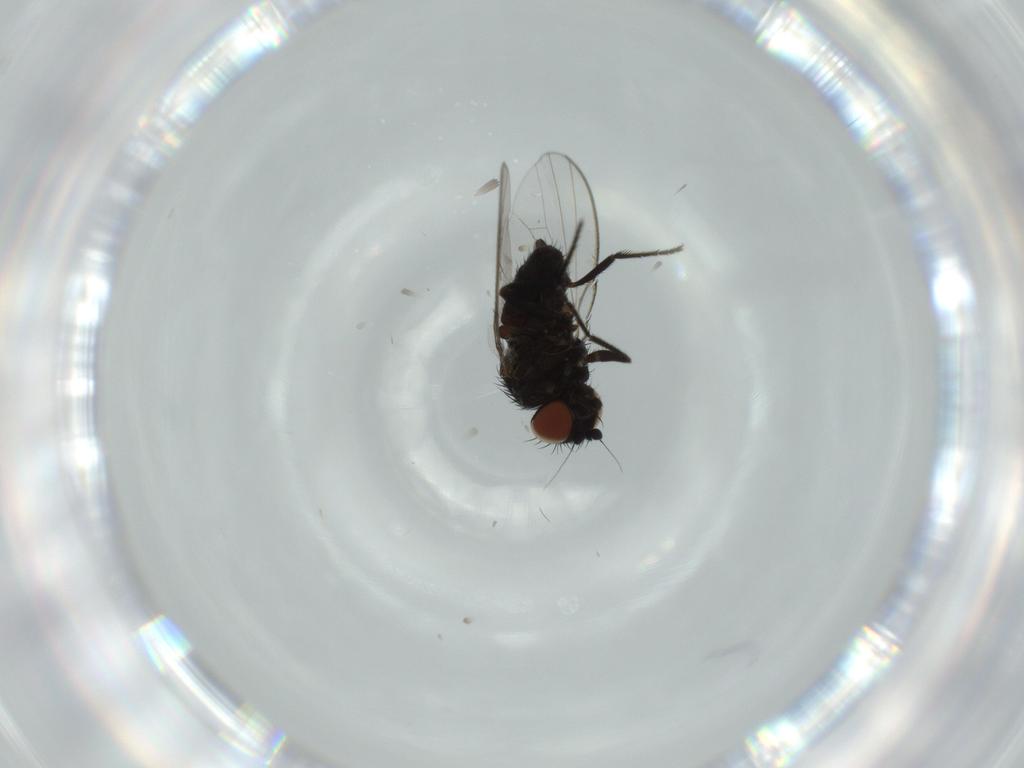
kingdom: Animalia
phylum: Arthropoda
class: Insecta
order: Diptera
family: Milichiidae
